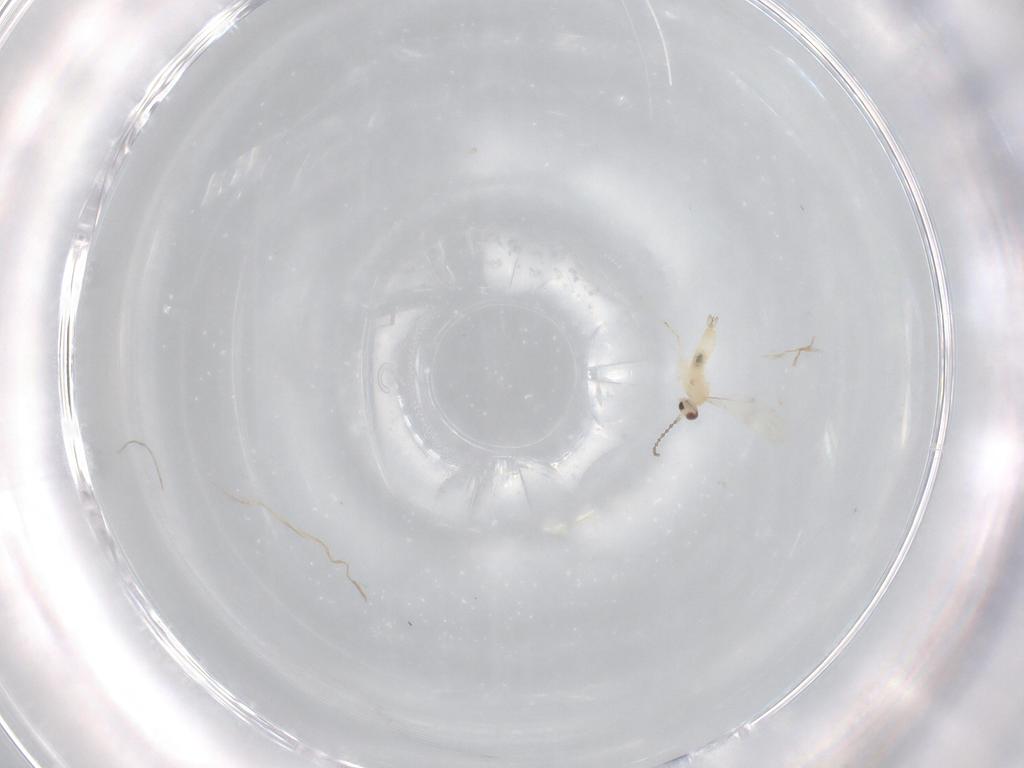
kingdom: Animalia
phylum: Arthropoda
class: Insecta
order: Diptera
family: Cecidomyiidae
